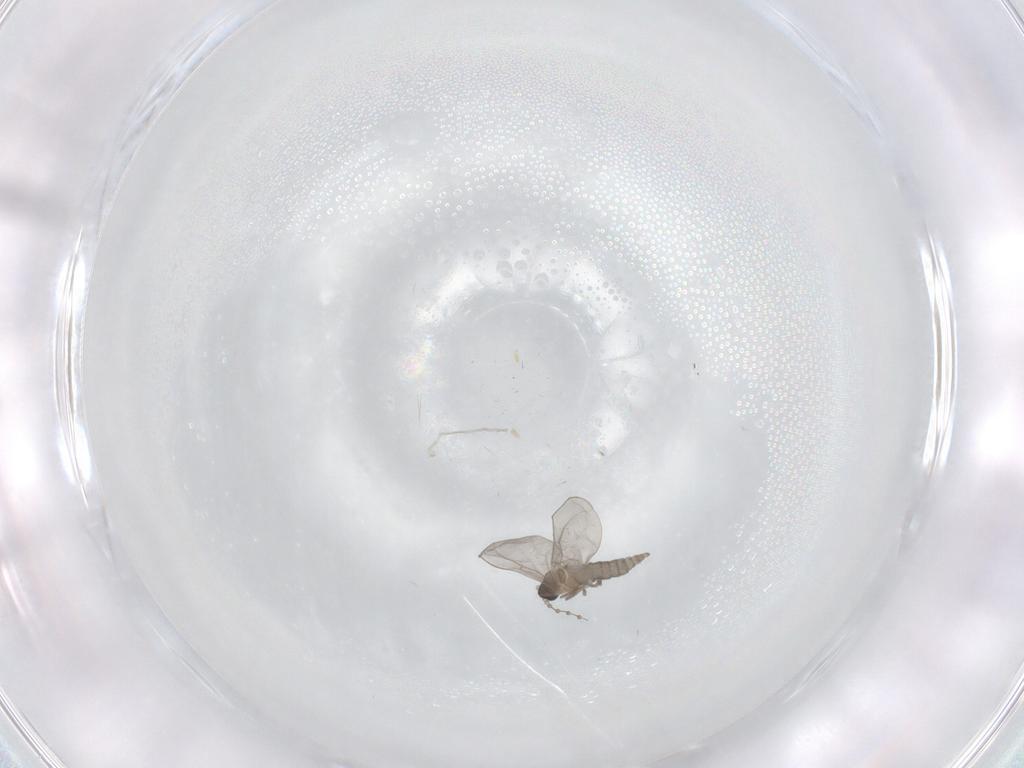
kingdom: Animalia
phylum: Arthropoda
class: Insecta
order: Diptera
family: Cecidomyiidae
